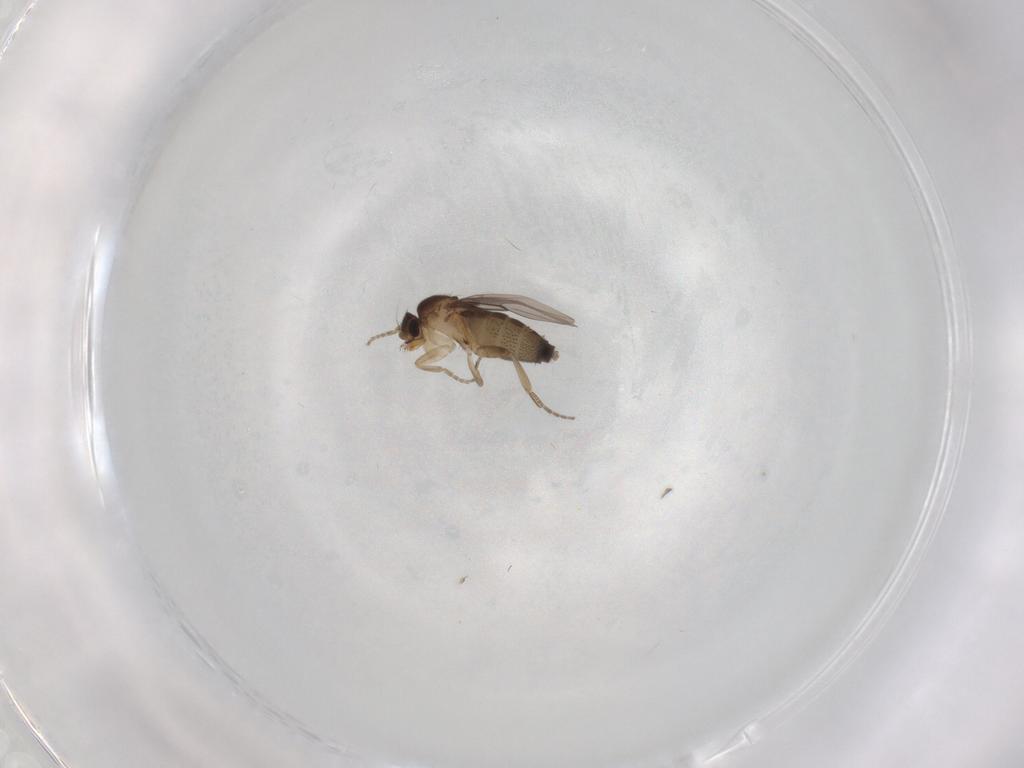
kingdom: Animalia
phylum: Arthropoda
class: Insecta
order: Diptera
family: Phoridae
